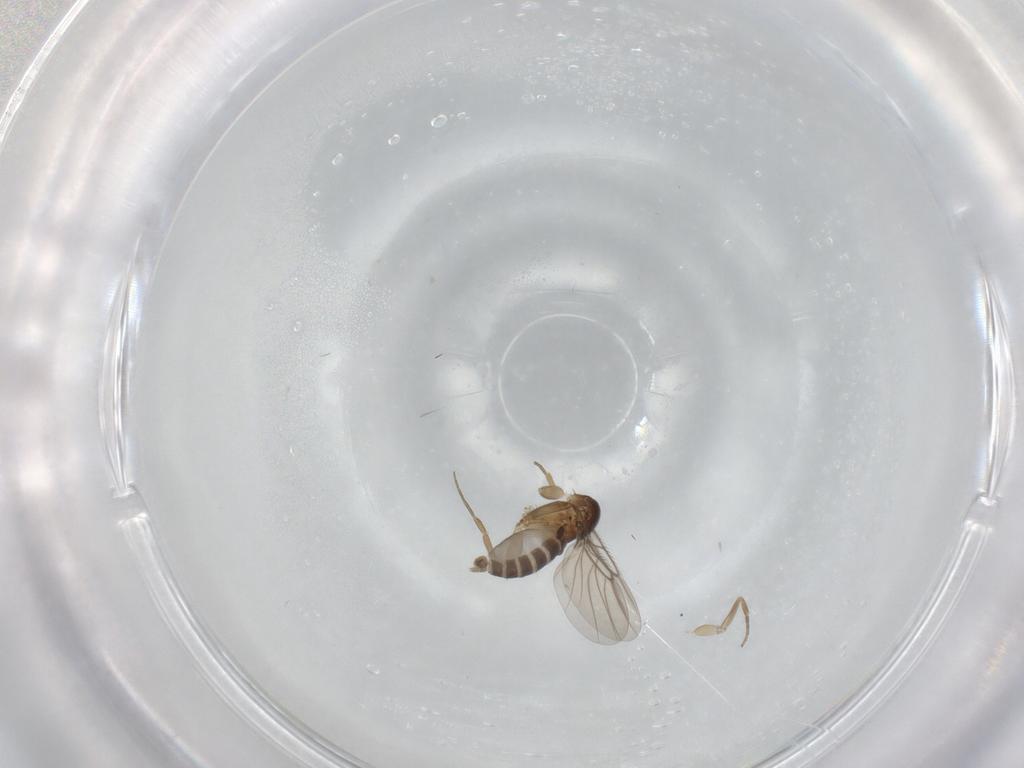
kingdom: Animalia
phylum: Arthropoda
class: Insecta
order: Diptera
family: Phoridae
